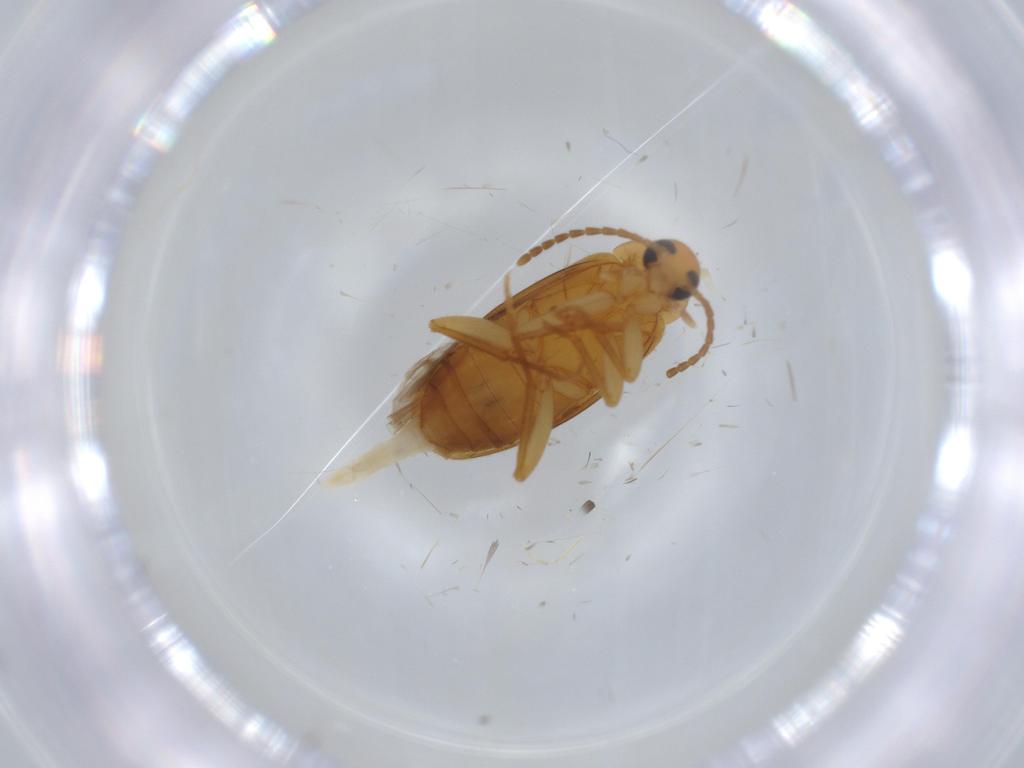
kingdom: Animalia
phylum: Arthropoda
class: Insecta
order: Coleoptera
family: Scraptiidae
